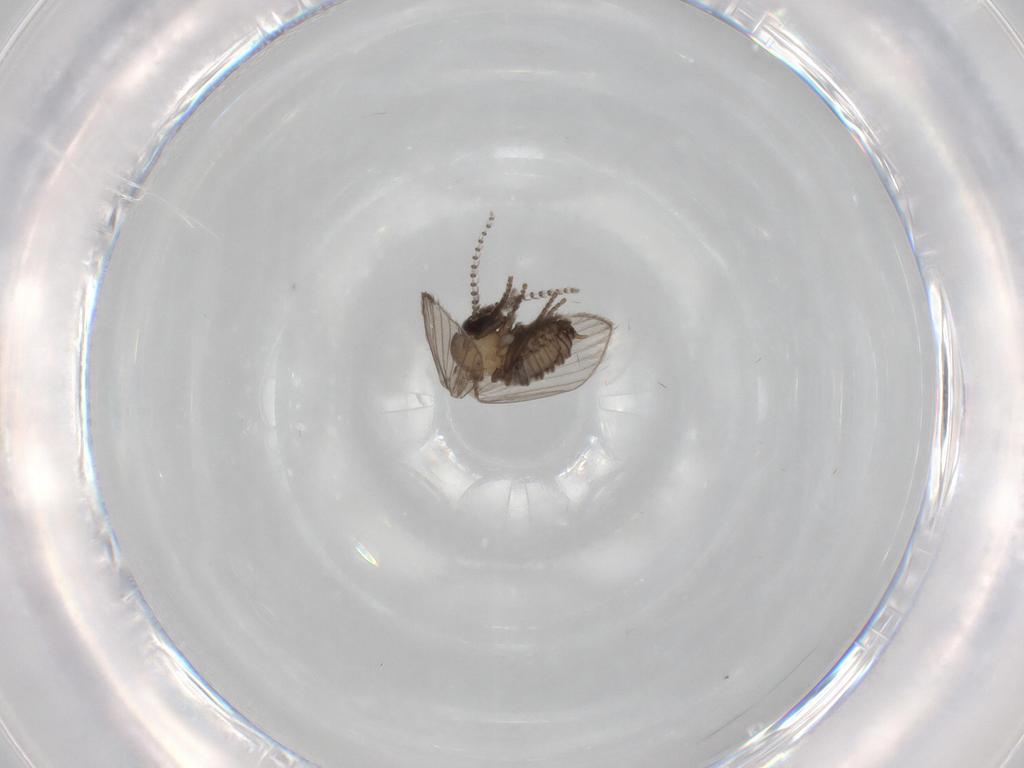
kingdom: Animalia
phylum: Arthropoda
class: Insecta
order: Diptera
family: Psychodidae
